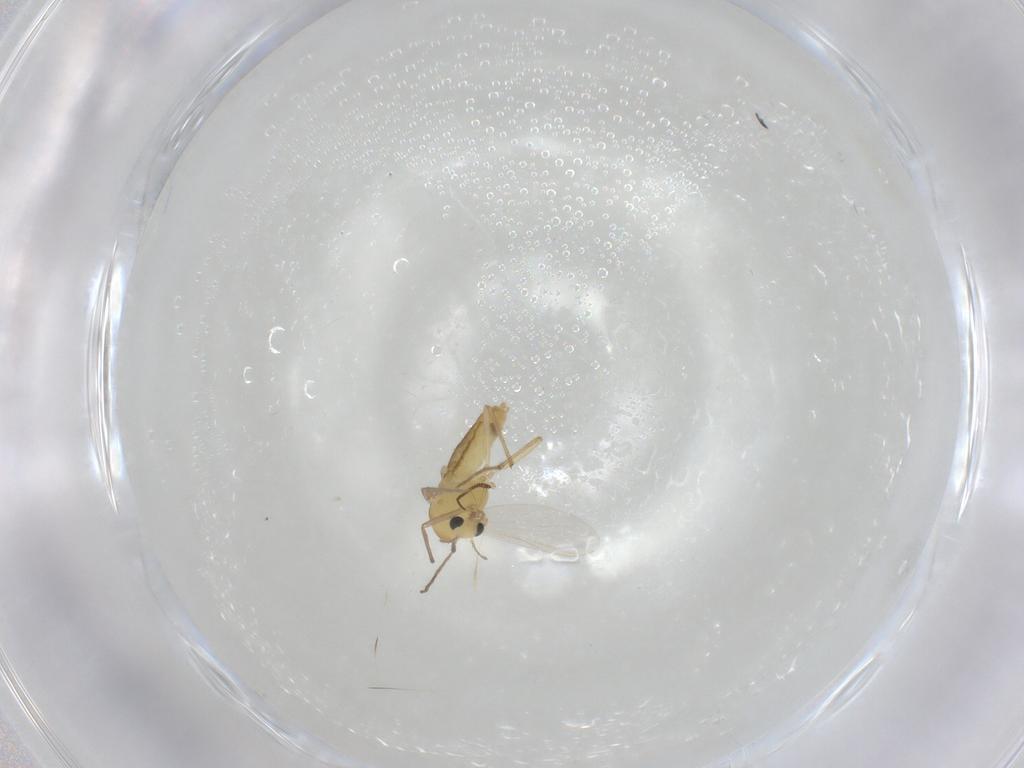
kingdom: Animalia
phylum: Arthropoda
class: Insecta
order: Diptera
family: Chironomidae
